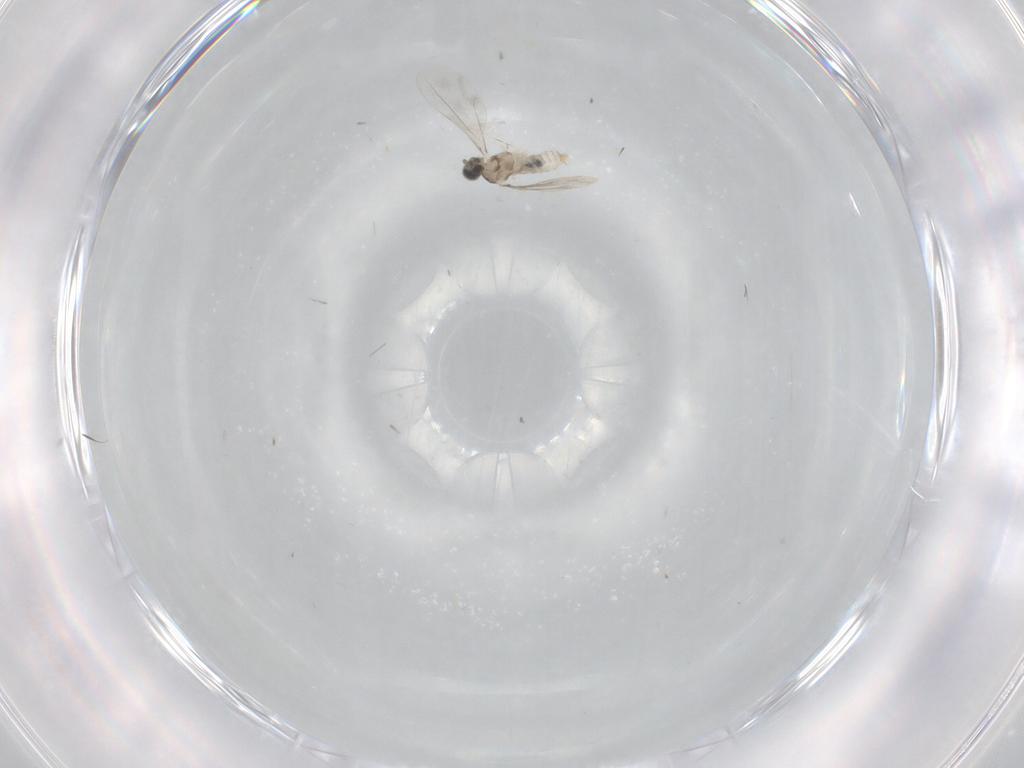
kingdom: Animalia
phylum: Arthropoda
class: Insecta
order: Diptera
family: Cecidomyiidae
